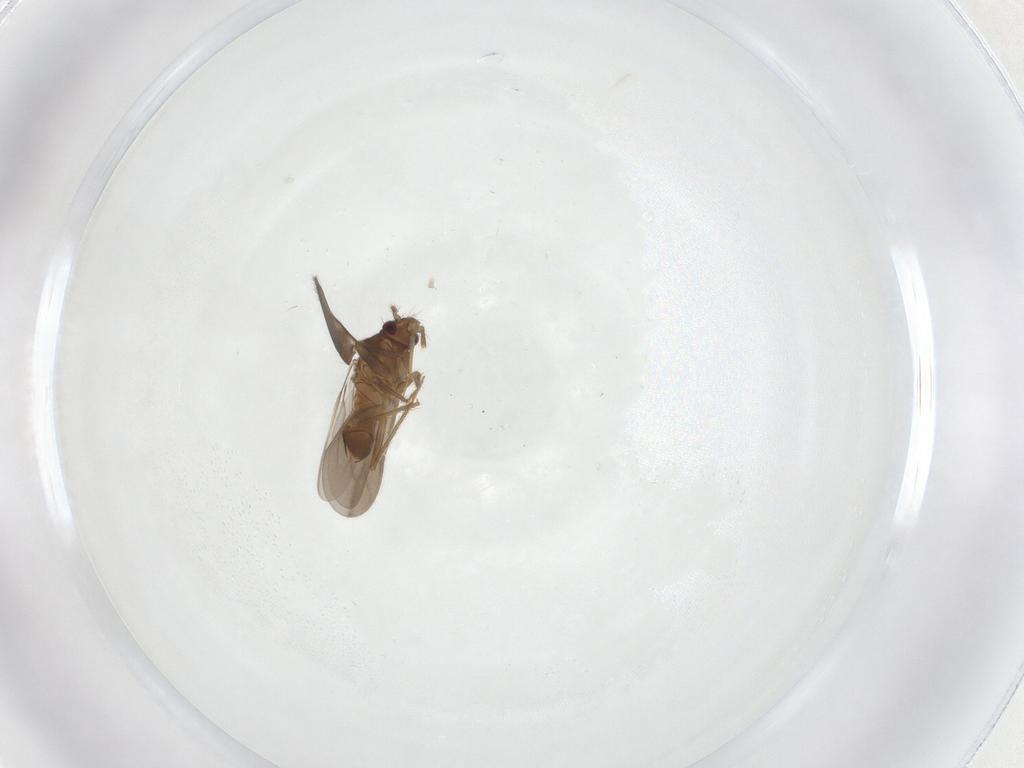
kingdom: Animalia
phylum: Arthropoda
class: Insecta
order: Hemiptera
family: Ceratocombidae
